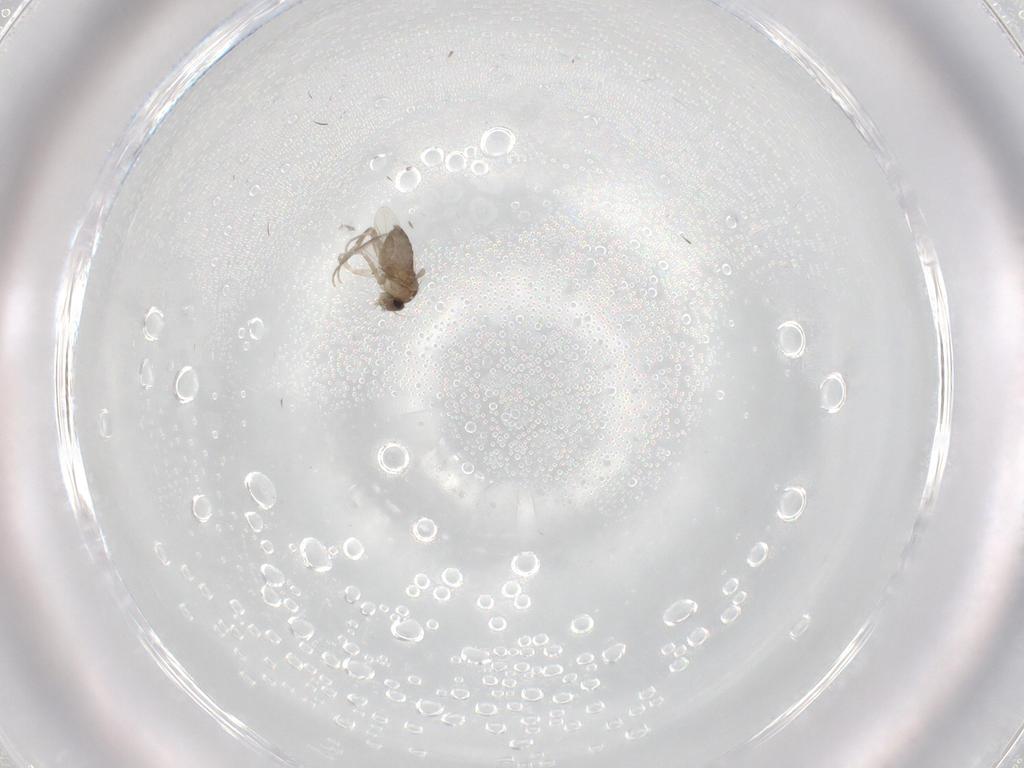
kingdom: Animalia
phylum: Arthropoda
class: Insecta
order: Diptera
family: Phoridae
